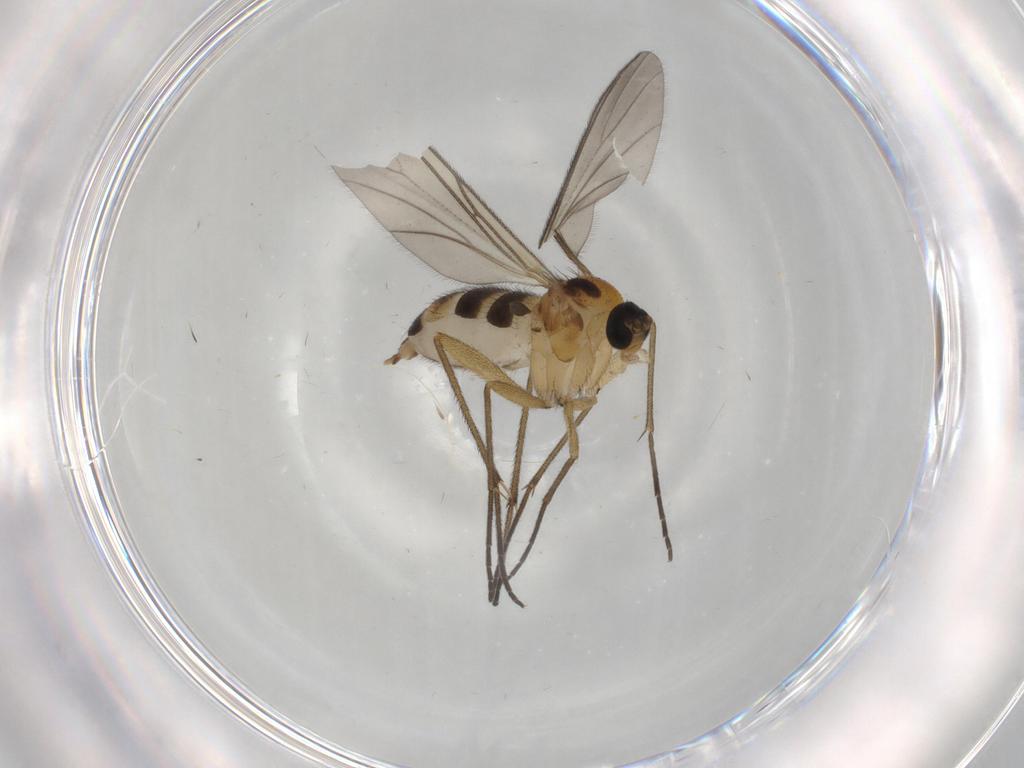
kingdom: Animalia
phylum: Arthropoda
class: Insecta
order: Diptera
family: Sciaridae
